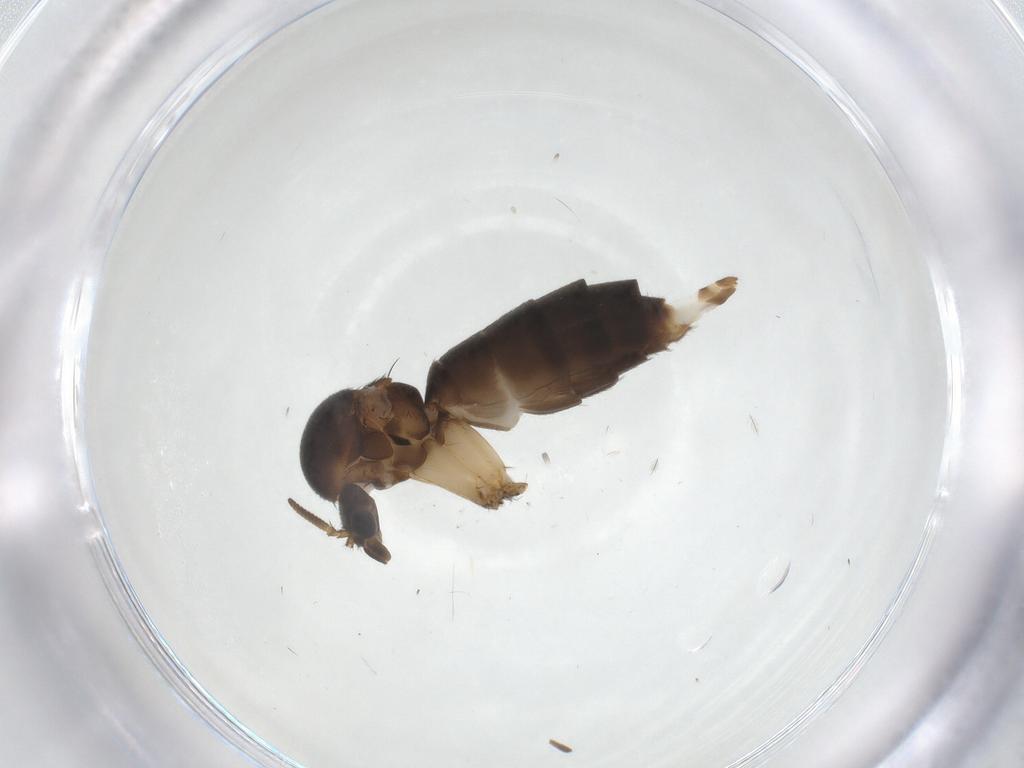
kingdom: Animalia
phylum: Arthropoda
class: Insecta
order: Diptera
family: Mycetophilidae
